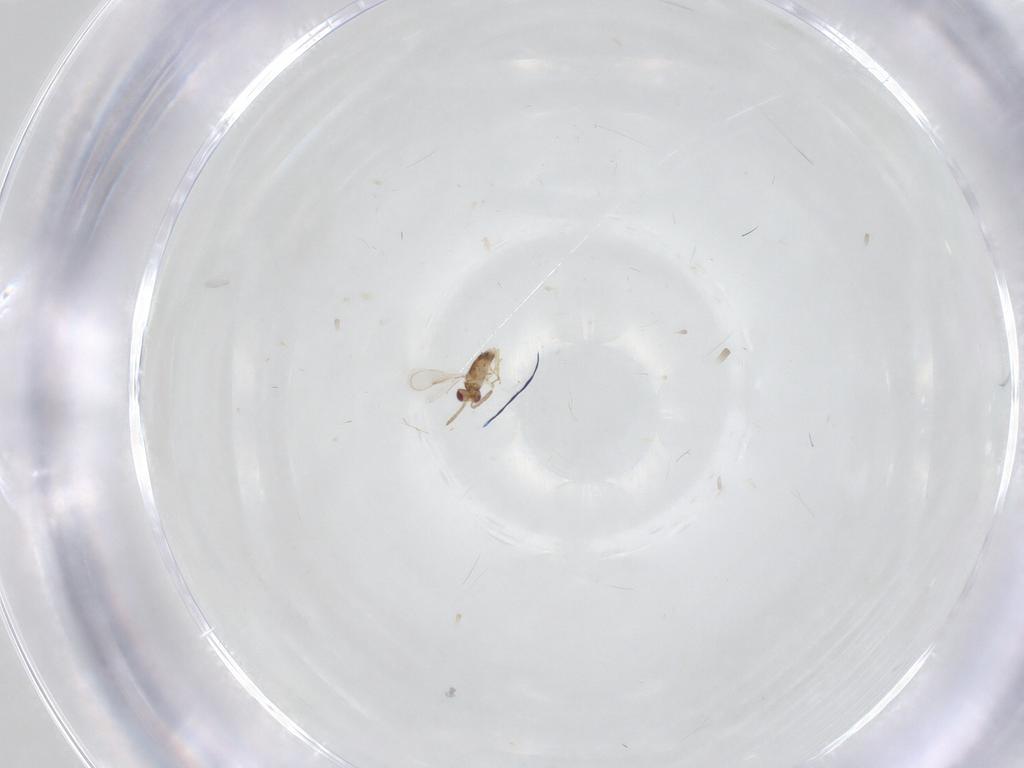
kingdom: Animalia
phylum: Arthropoda
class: Insecta
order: Hymenoptera
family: Aphelinidae
